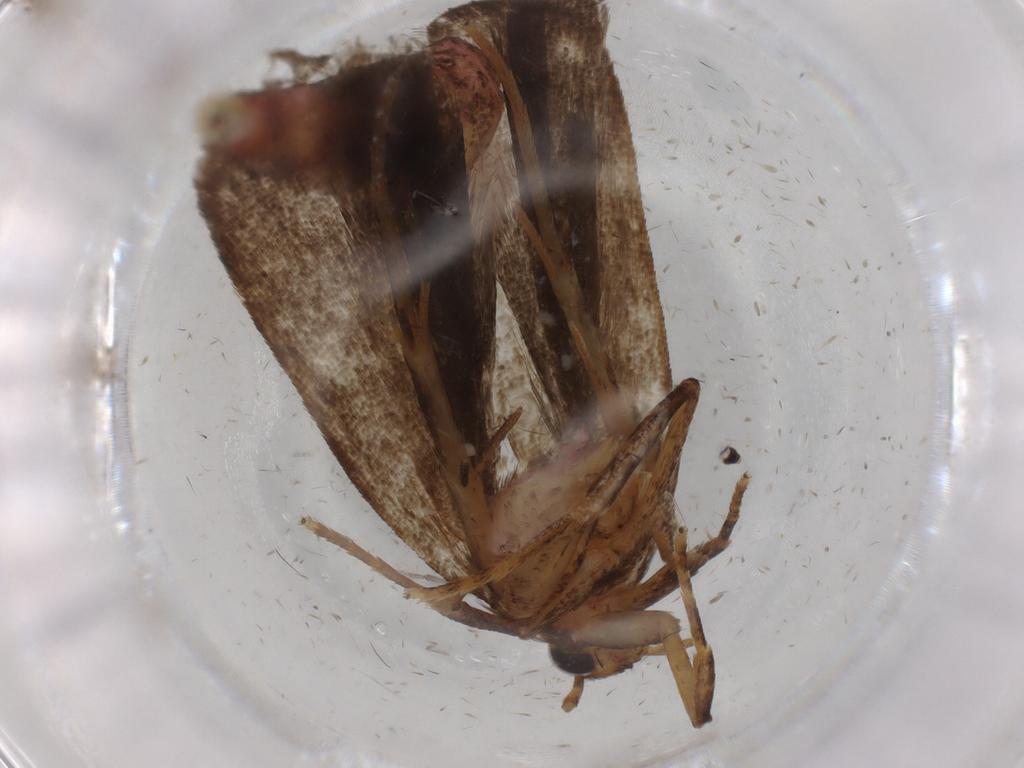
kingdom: Animalia
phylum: Arthropoda
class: Insecta
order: Lepidoptera
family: Autostichidae
